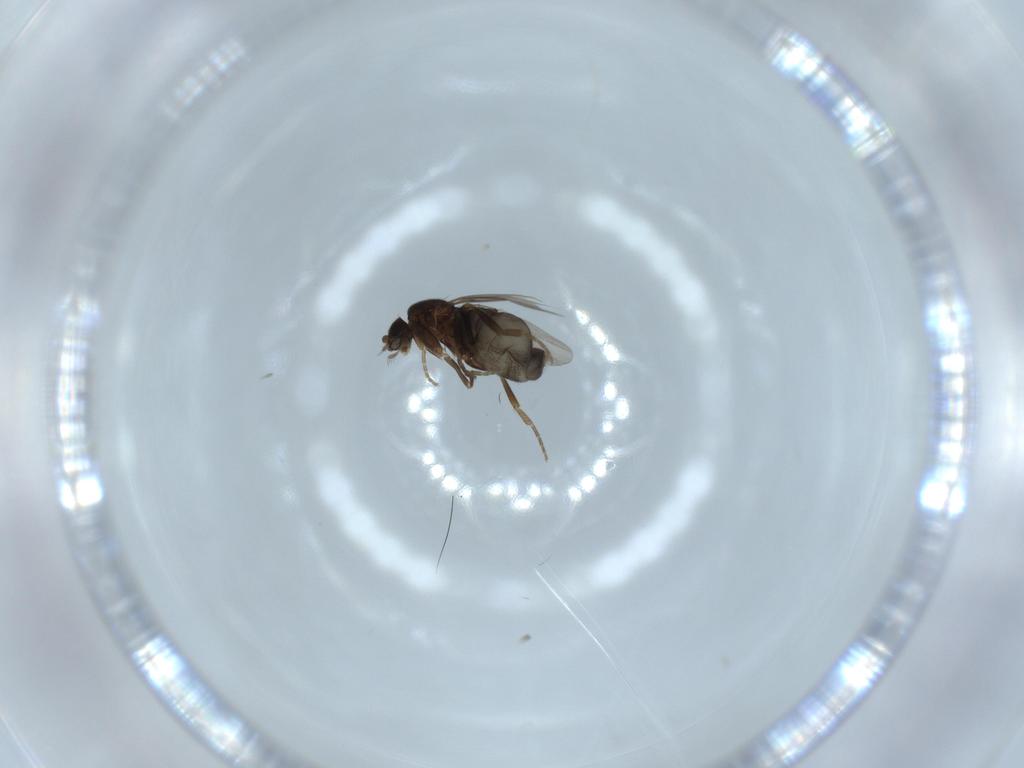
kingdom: Animalia
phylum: Arthropoda
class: Insecta
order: Diptera
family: Phoridae
